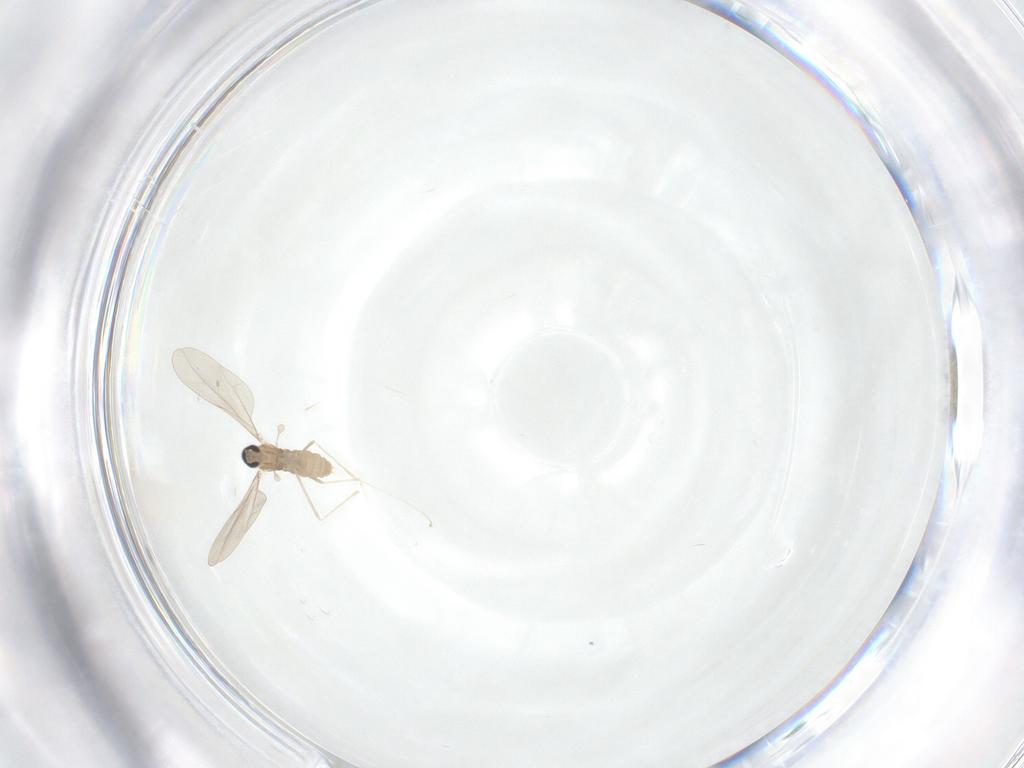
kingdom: Animalia
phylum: Arthropoda
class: Insecta
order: Diptera
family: Cecidomyiidae
